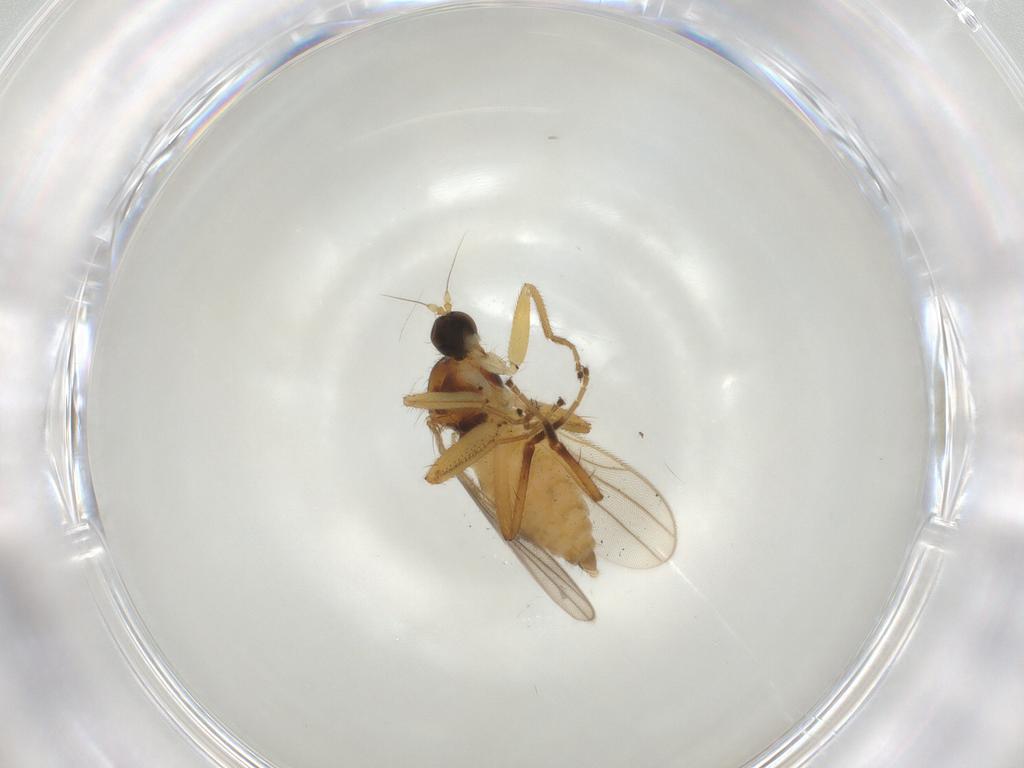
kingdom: Animalia
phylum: Arthropoda
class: Insecta
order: Diptera
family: Hybotidae
